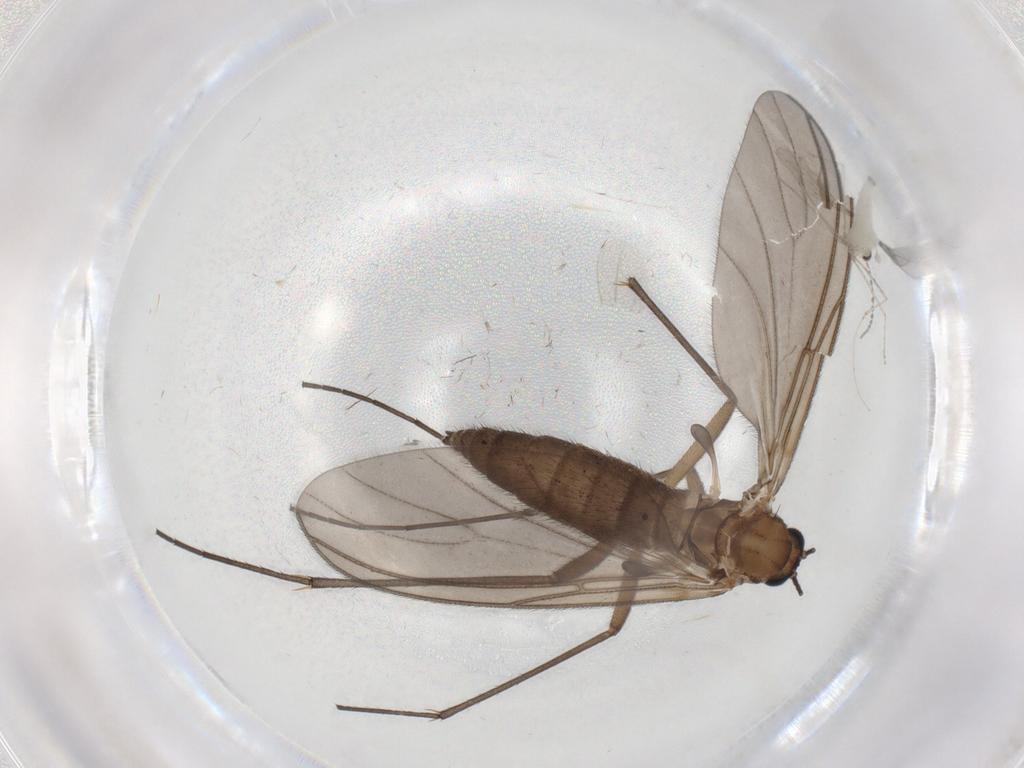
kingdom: Animalia
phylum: Arthropoda
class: Insecta
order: Diptera
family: Cecidomyiidae
